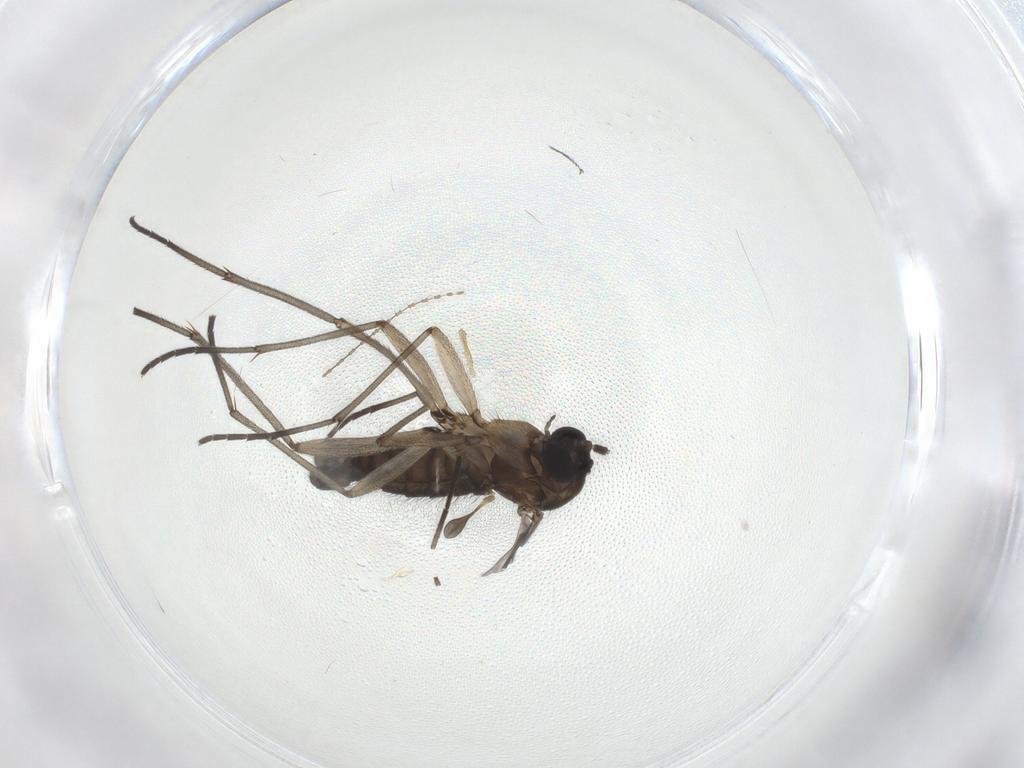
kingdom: Animalia
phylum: Arthropoda
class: Insecta
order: Diptera
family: Sciaridae
